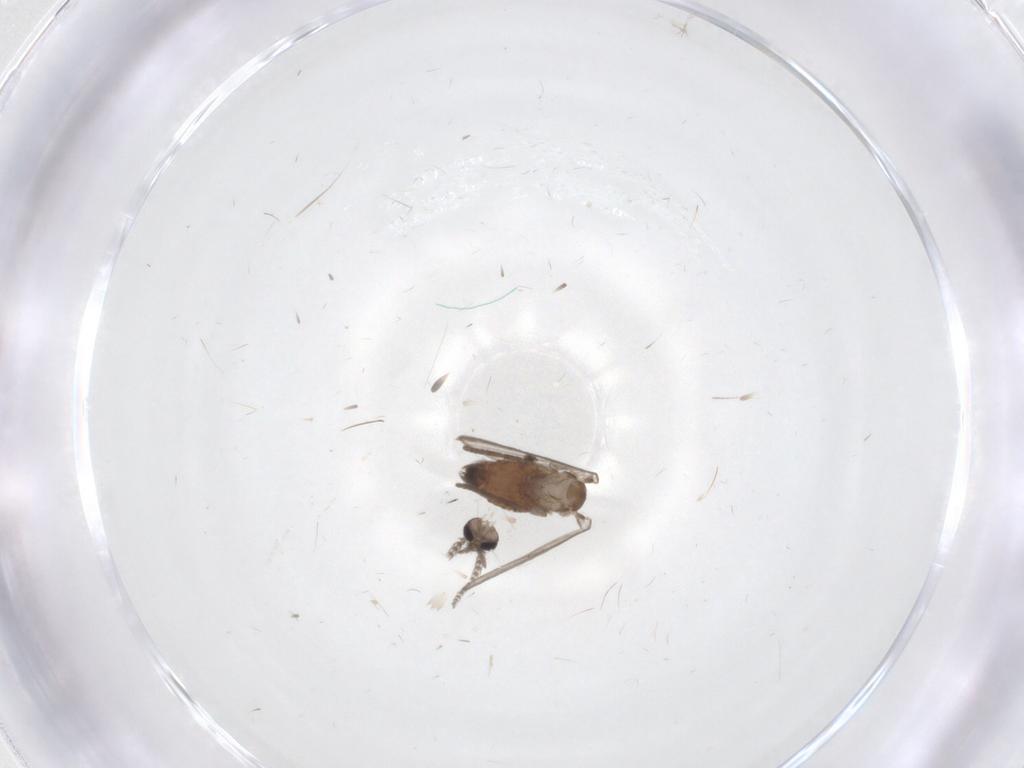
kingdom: Animalia
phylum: Arthropoda
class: Insecta
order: Diptera
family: Psychodidae
